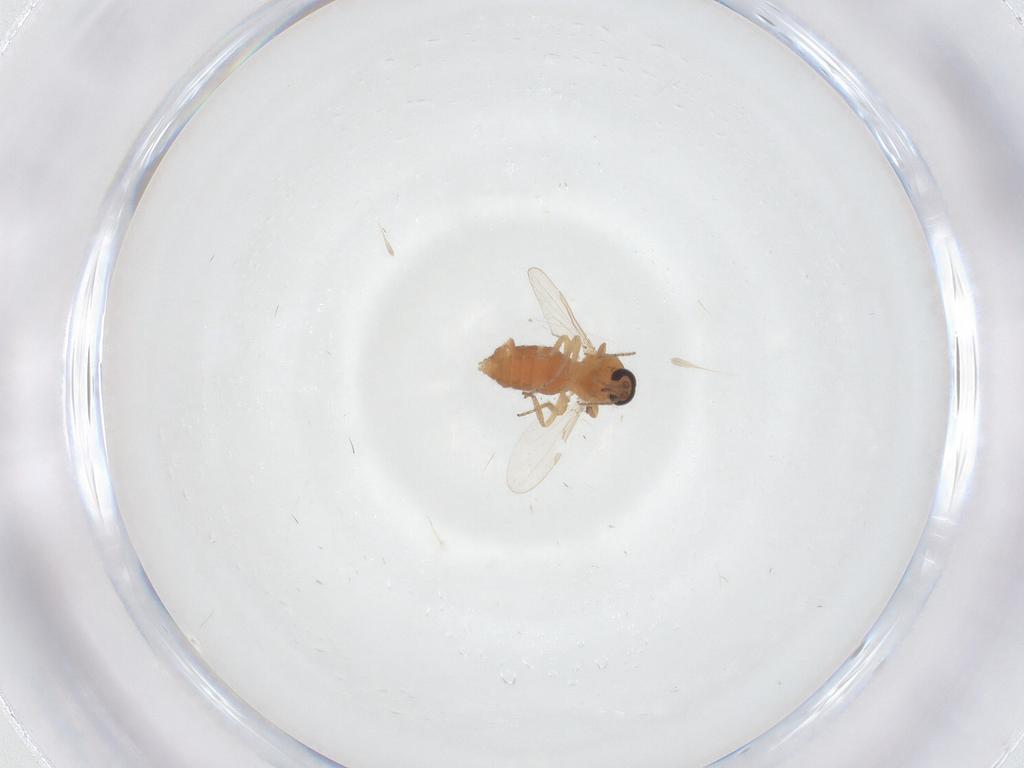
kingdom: Animalia
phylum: Arthropoda
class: Insecta
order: Diptera
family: Ceratopogonidae
